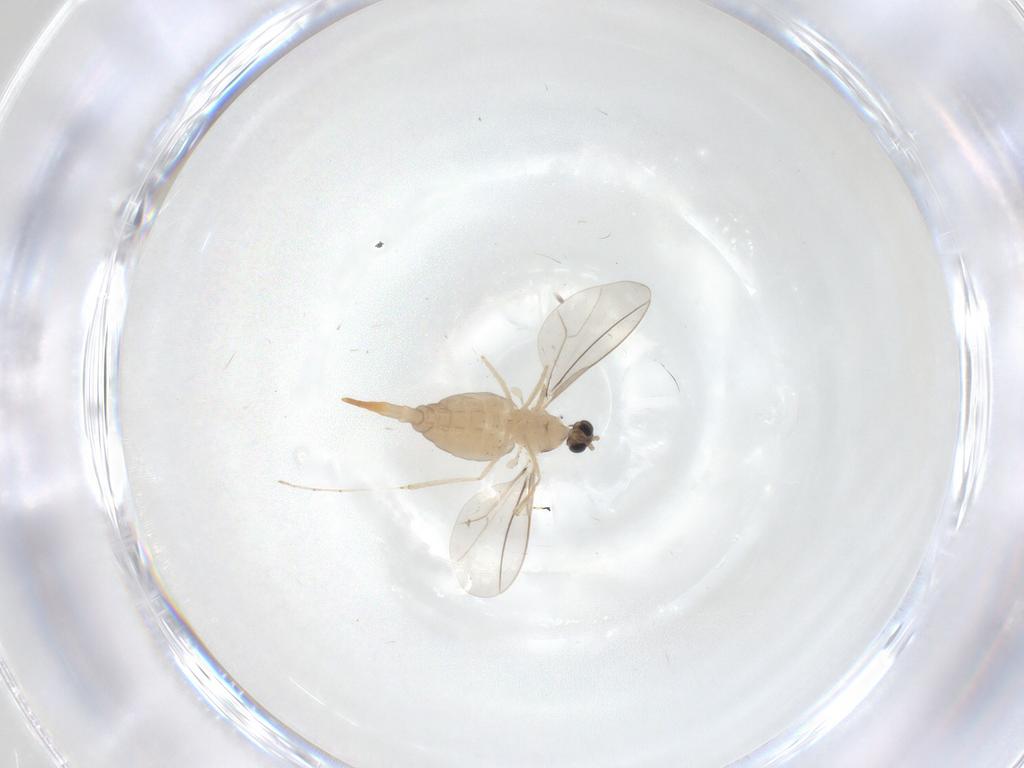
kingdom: Animalia
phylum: Arthropoda
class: Insecta
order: Diptera
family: Cecidomyiidae
